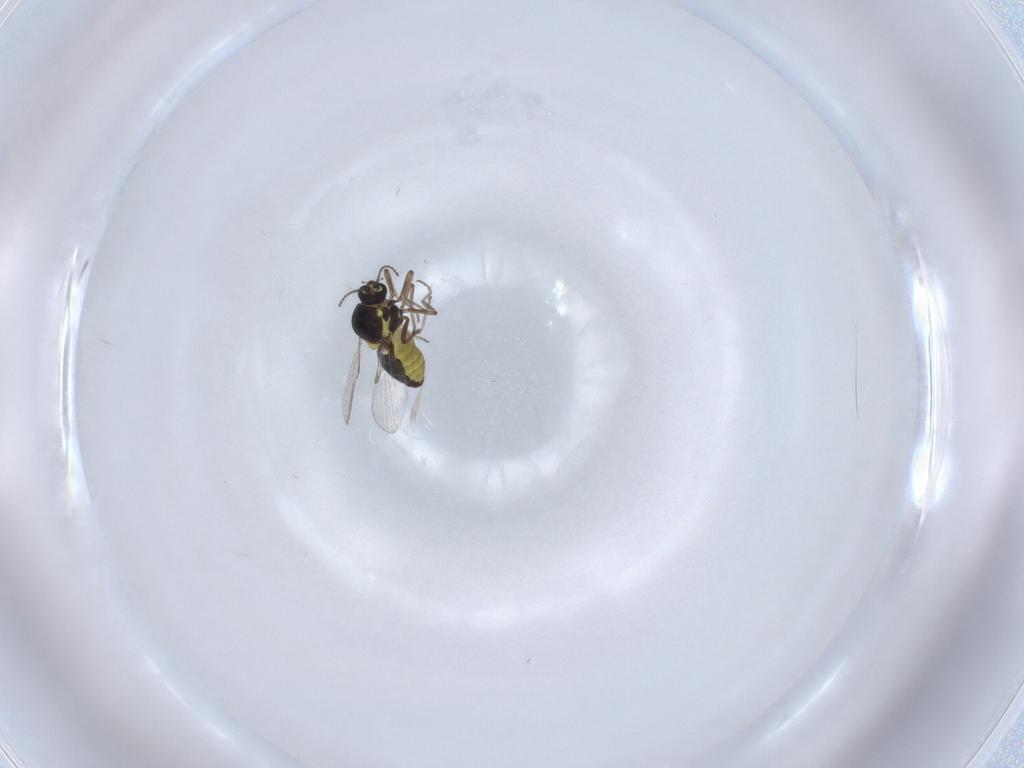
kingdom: Animalia
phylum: Arthropoda
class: Insecta
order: Diptera
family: Ceratopogonidae
